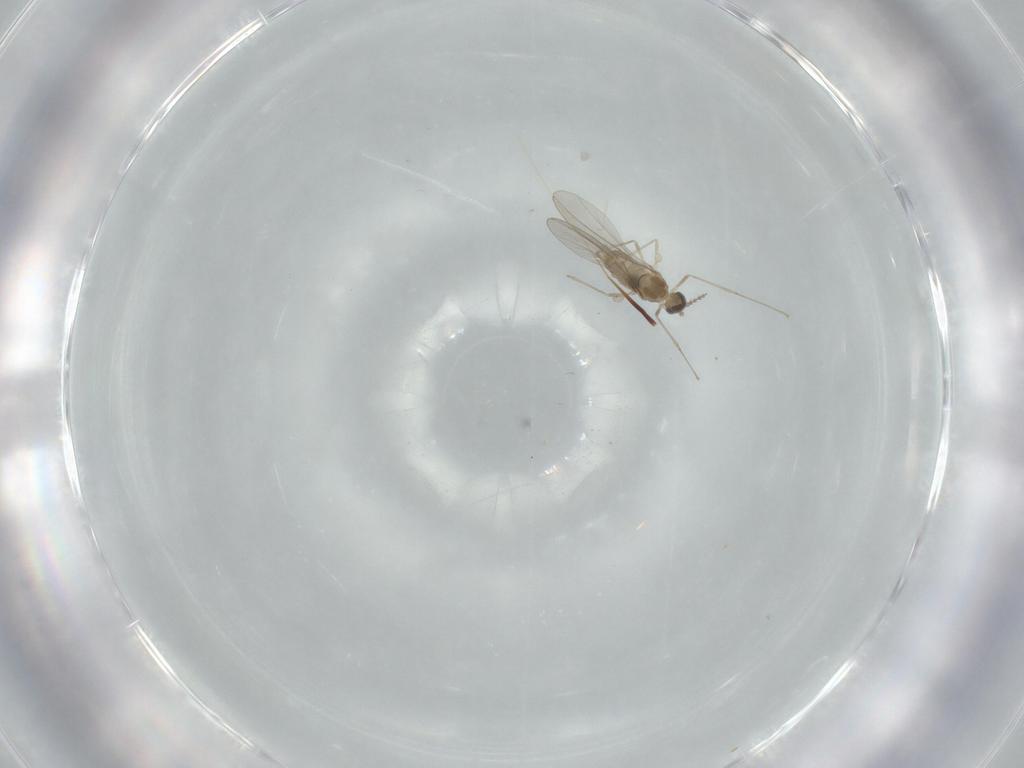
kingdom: Animalia
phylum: Arthropoda
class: Insecta
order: Diptera
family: Cecidomyiidae
